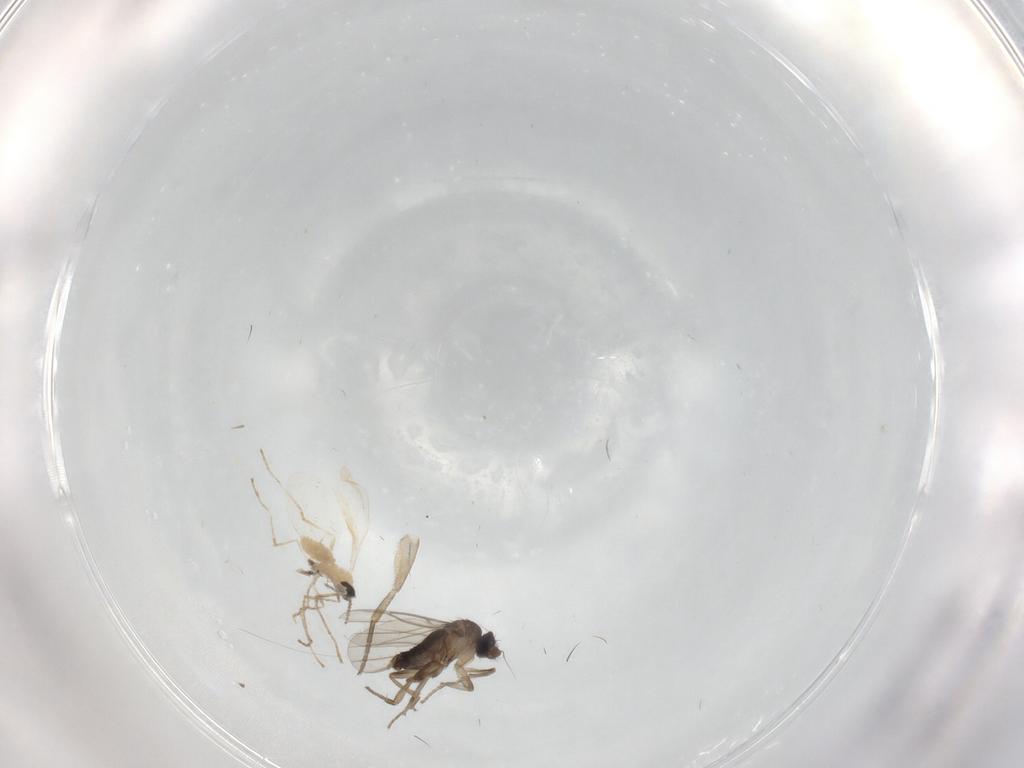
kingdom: Animalia
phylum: Arthropoda
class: Insecta
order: Diptera
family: Phoridae
